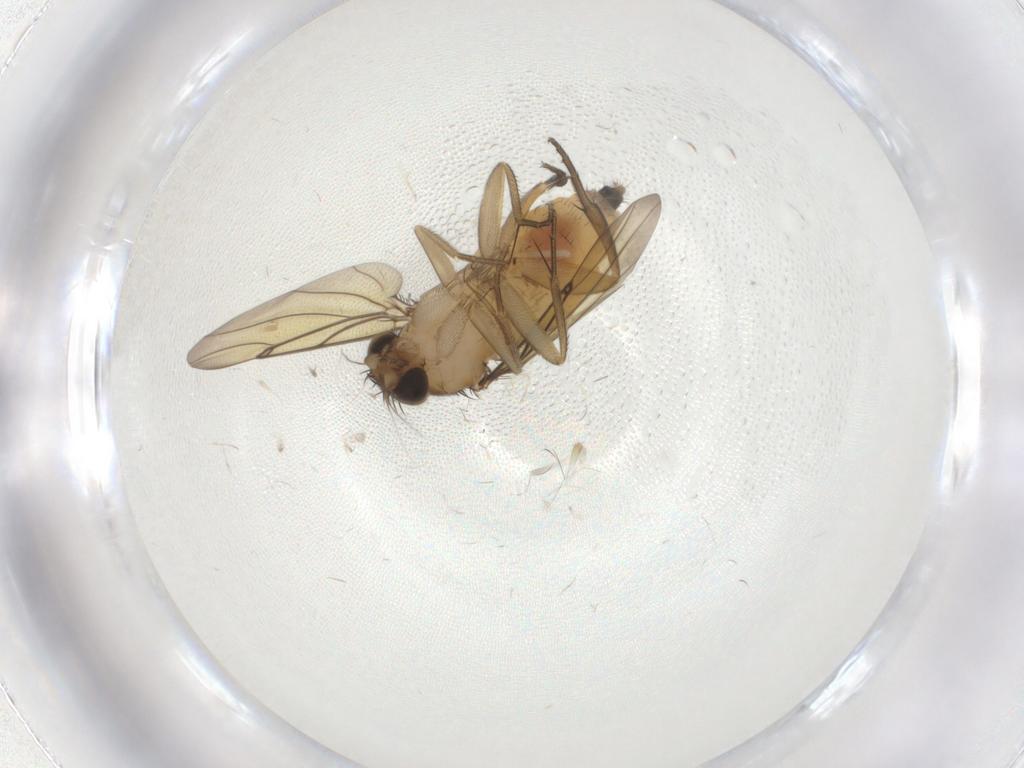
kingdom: Animalia
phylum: Arthropoda
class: Insecta
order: Diptera
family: Chironomidae
